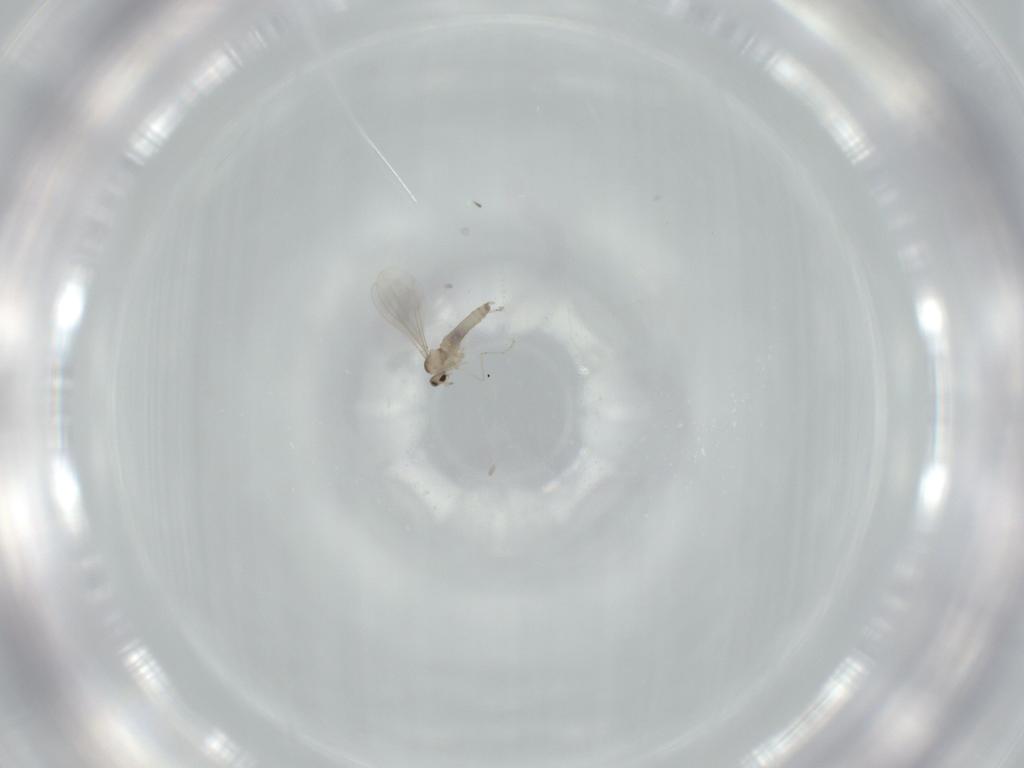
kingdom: Animalia
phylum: Arthropoda
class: Insecta
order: Diptera
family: Cecidomyiidae
